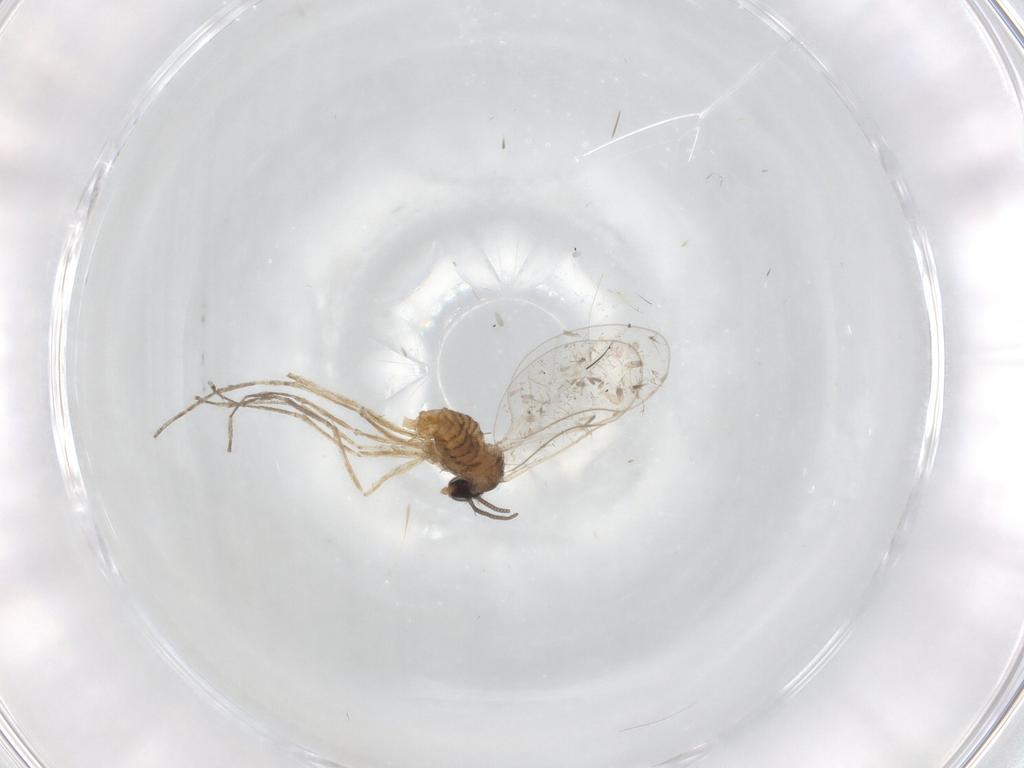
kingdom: Animalia
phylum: Arthropoda
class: Insecta
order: Diptera
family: Cecidomyiidae
